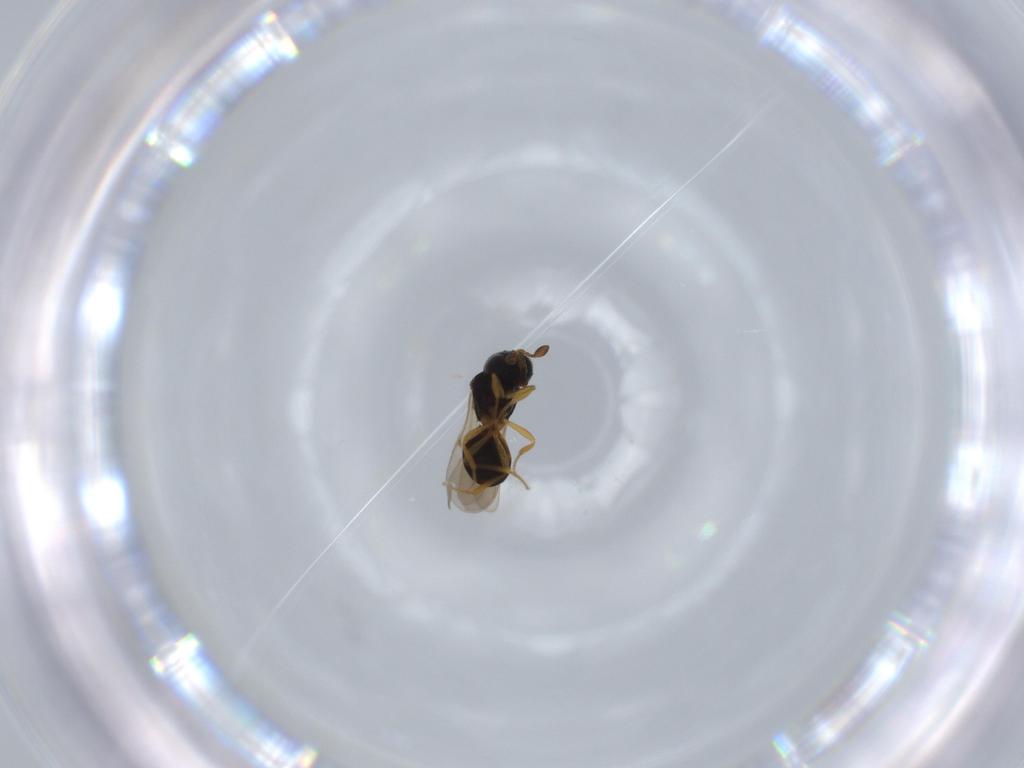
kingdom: Animalia
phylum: Arthropoda
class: Insecta
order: Hymenoptera
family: Scelionidae
